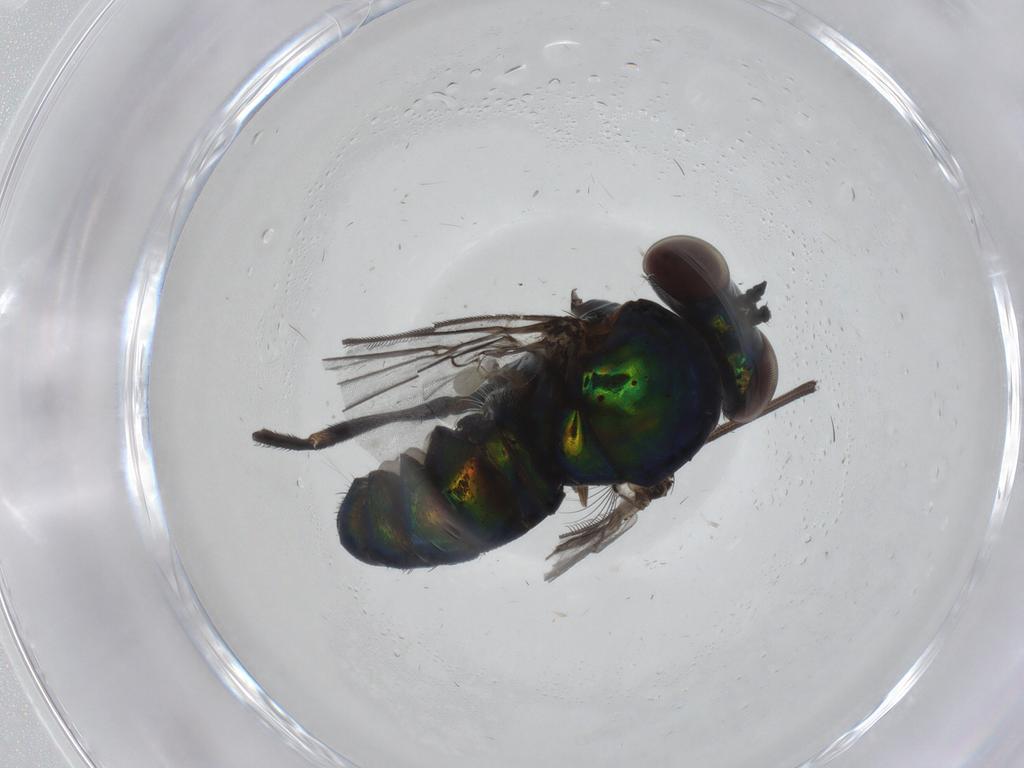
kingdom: Animalia
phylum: Arthropoda
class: Insecta
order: Diptera
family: Dolichopodidae
